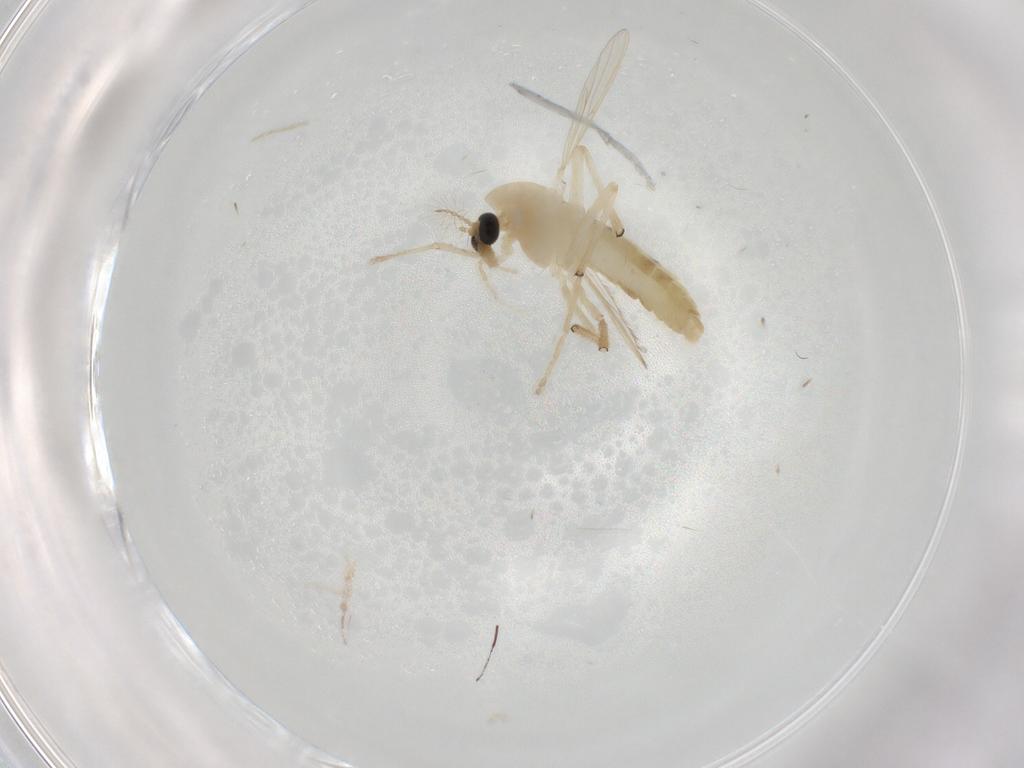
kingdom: Animalia
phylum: Arthropoda
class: Insecta
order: Diptera
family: Chironomidae
